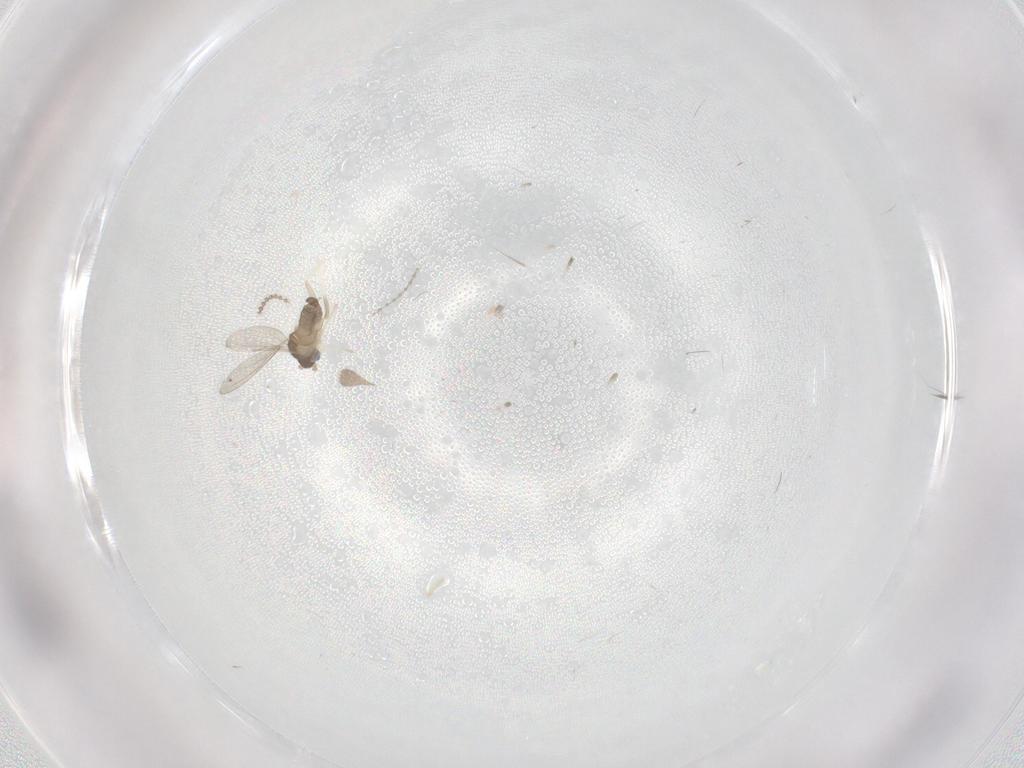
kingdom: Animalia
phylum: Arthropoda
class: Insecta
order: Diptera
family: Cecidomyiidae
